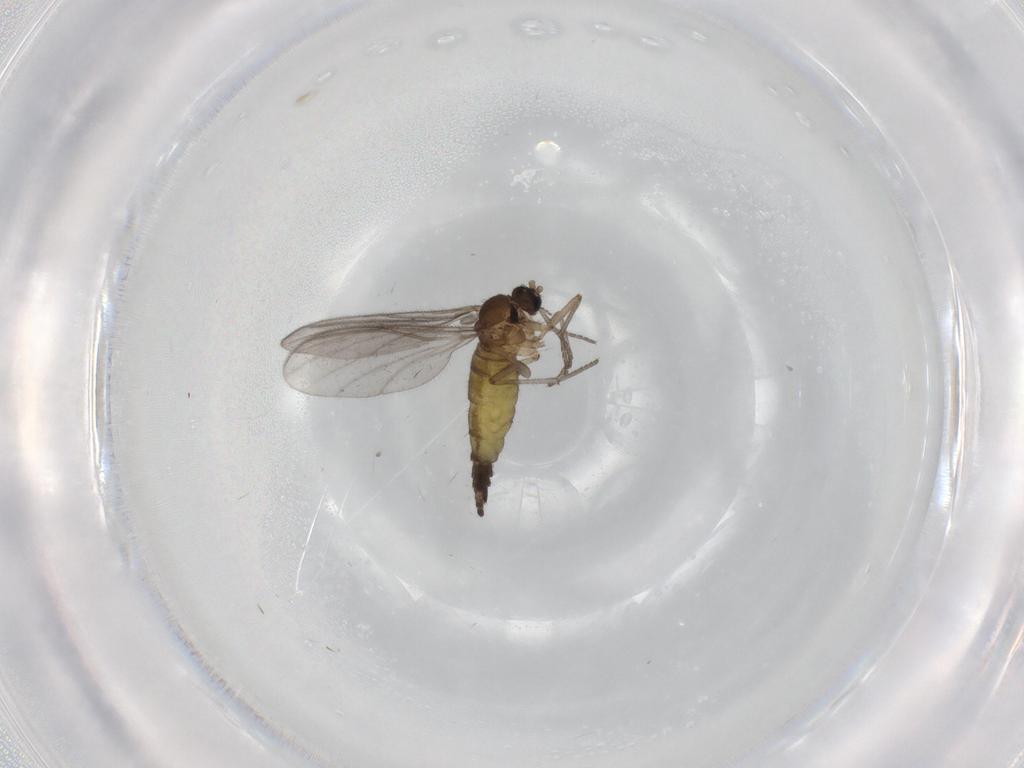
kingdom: Animalia
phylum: Arthropoda
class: Insecta
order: Diptera
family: Sciaridae
